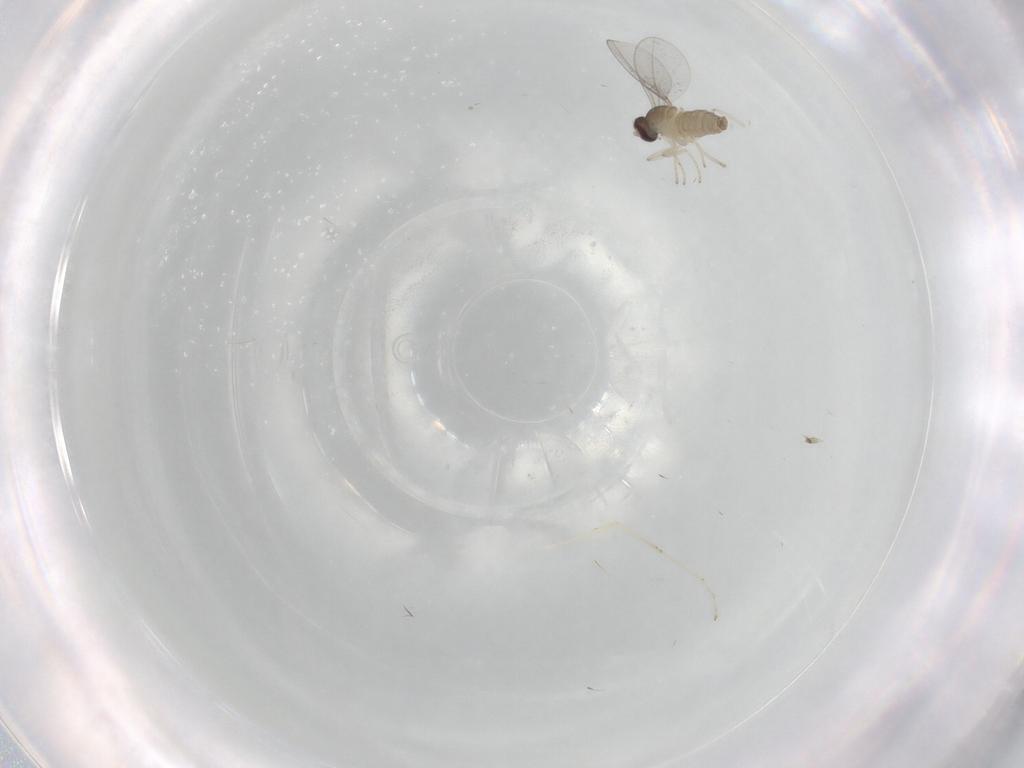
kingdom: Animalia
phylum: Arthropoda
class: Insecta
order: Diptera
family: Cecidomyiidae
